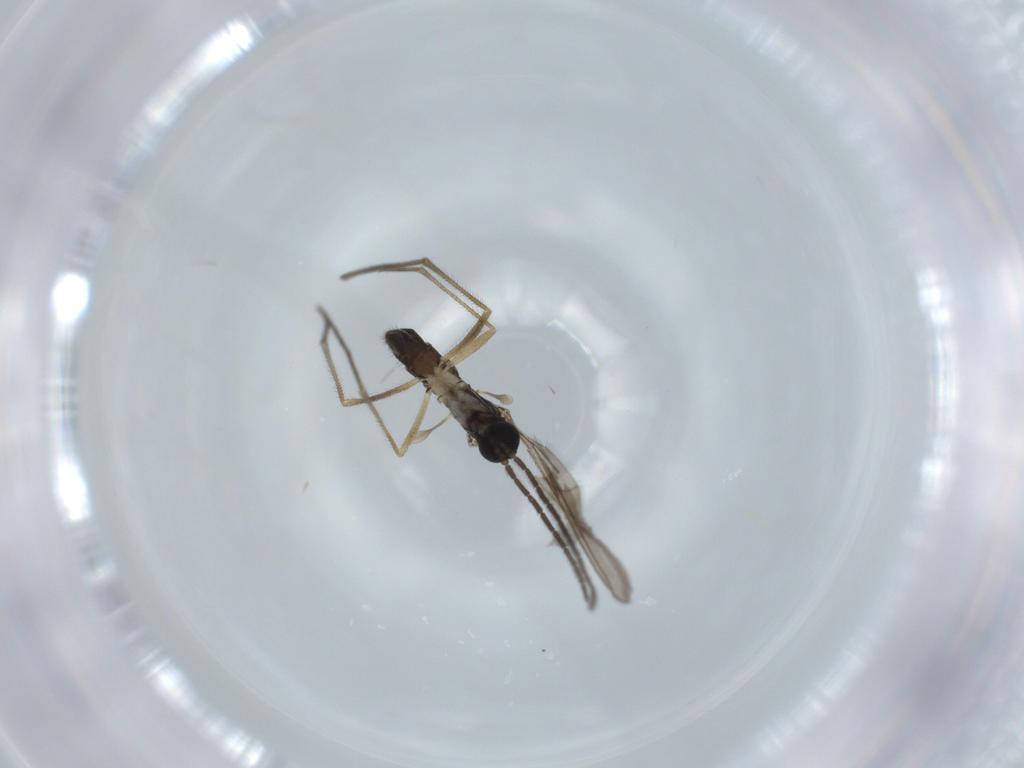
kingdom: Animalia
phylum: Arthropoda
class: Insecta
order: Diptera
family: Sciaridae
